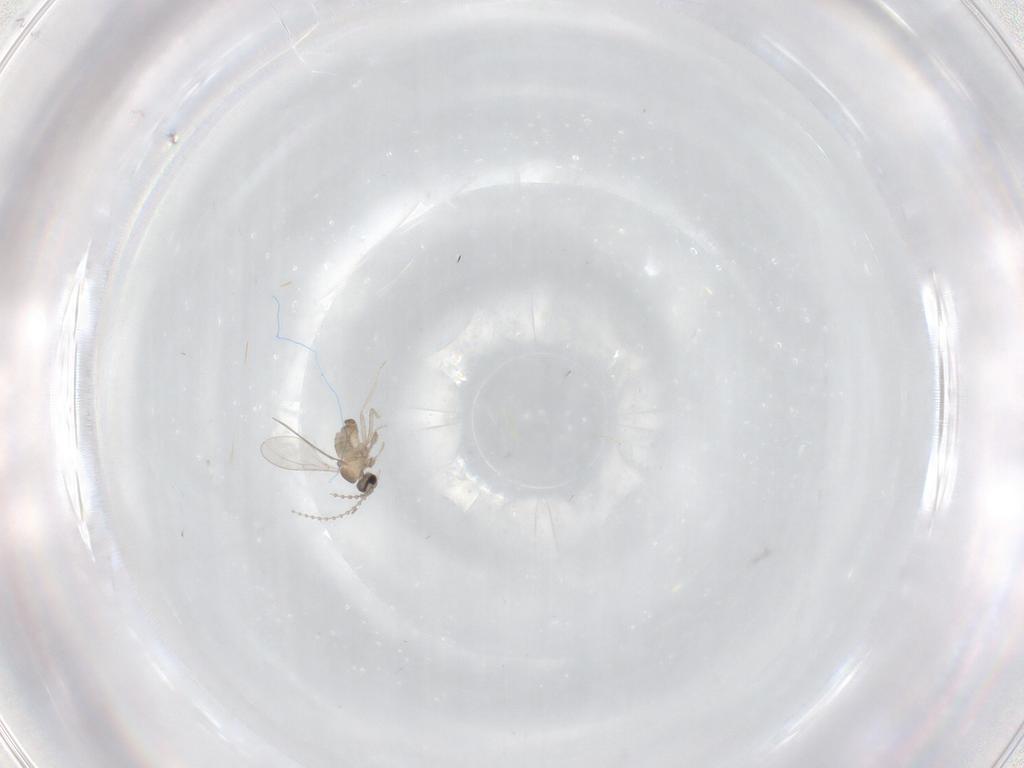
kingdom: Animalia
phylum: Arthropoda
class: Insecta
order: Diptera
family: Cecidomyiidae
